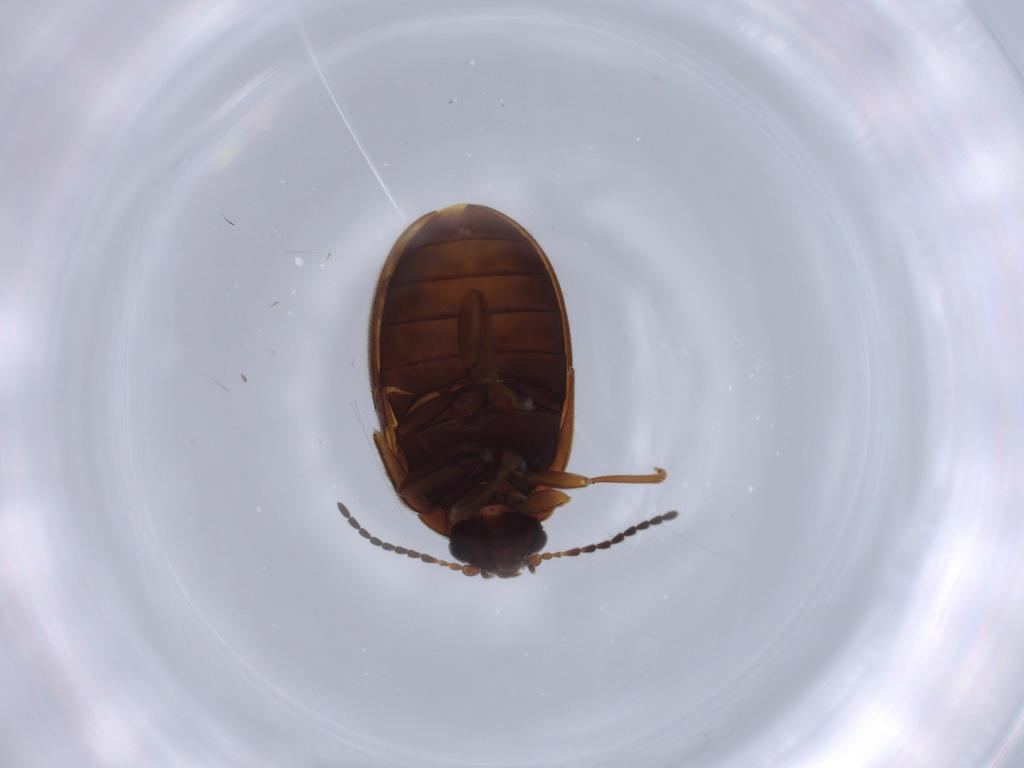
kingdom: Animalia
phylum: Arthropoda
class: Insecta
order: Coleoptera
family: Scirtidae
